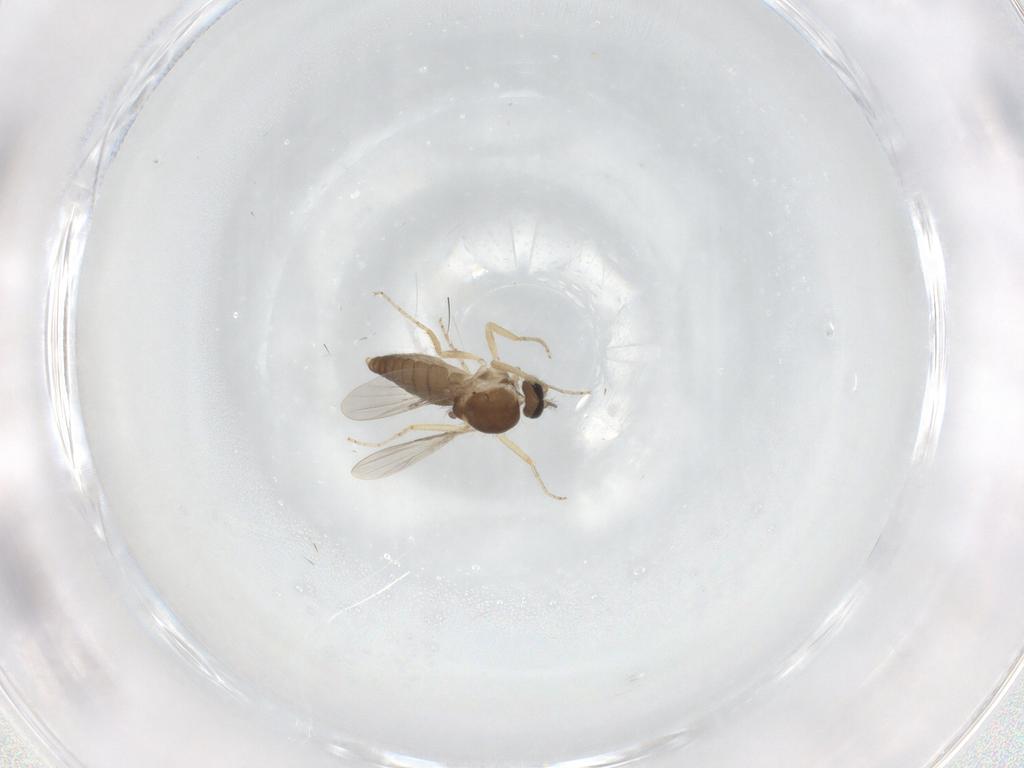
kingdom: Animalia
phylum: Arthropoda
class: Insecta
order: Diptera
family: Ceratopogonidae
